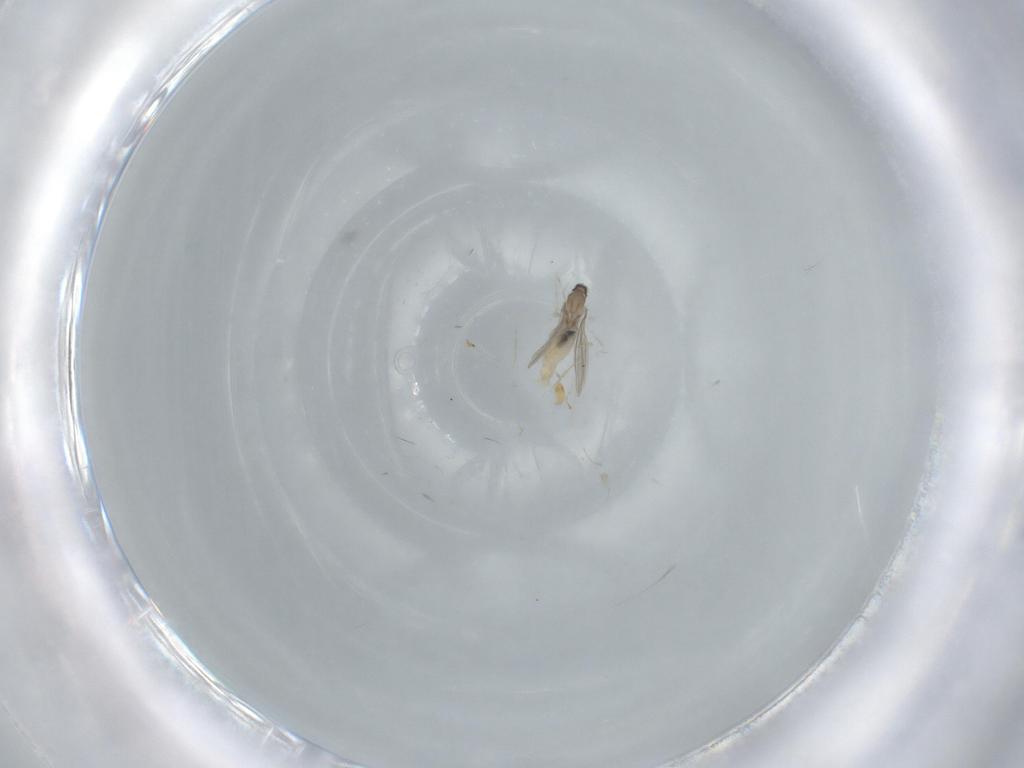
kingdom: Animalia
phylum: Arthropoda
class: Insecta
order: Diptera
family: Cecidomyiidae
